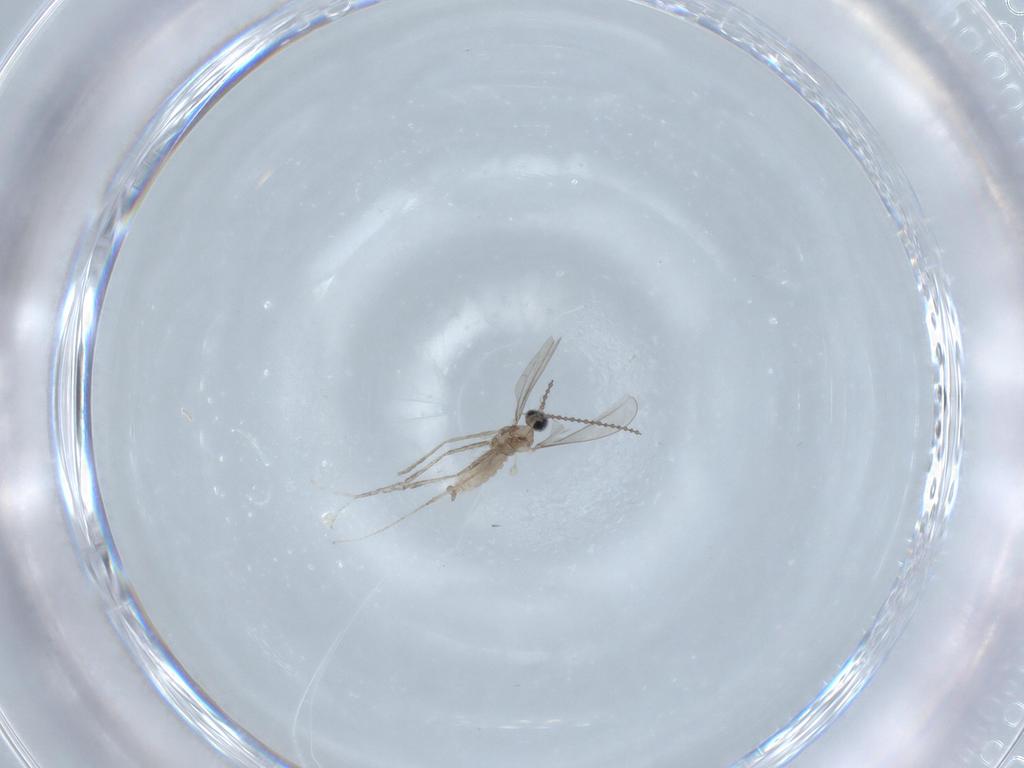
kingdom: Animalia
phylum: Arthropoda
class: Insecta
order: Diptera
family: Cecidomyiidae
